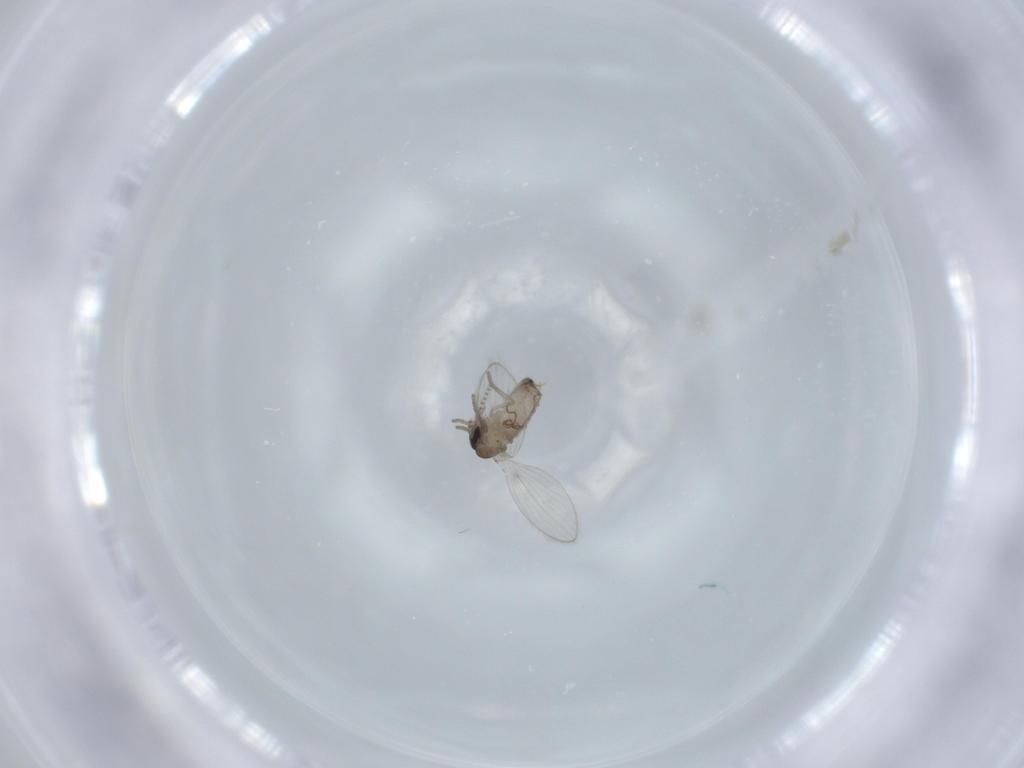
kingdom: Animalia
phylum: Arthropoda
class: Insecta
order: Diptera
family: Psychodidae
